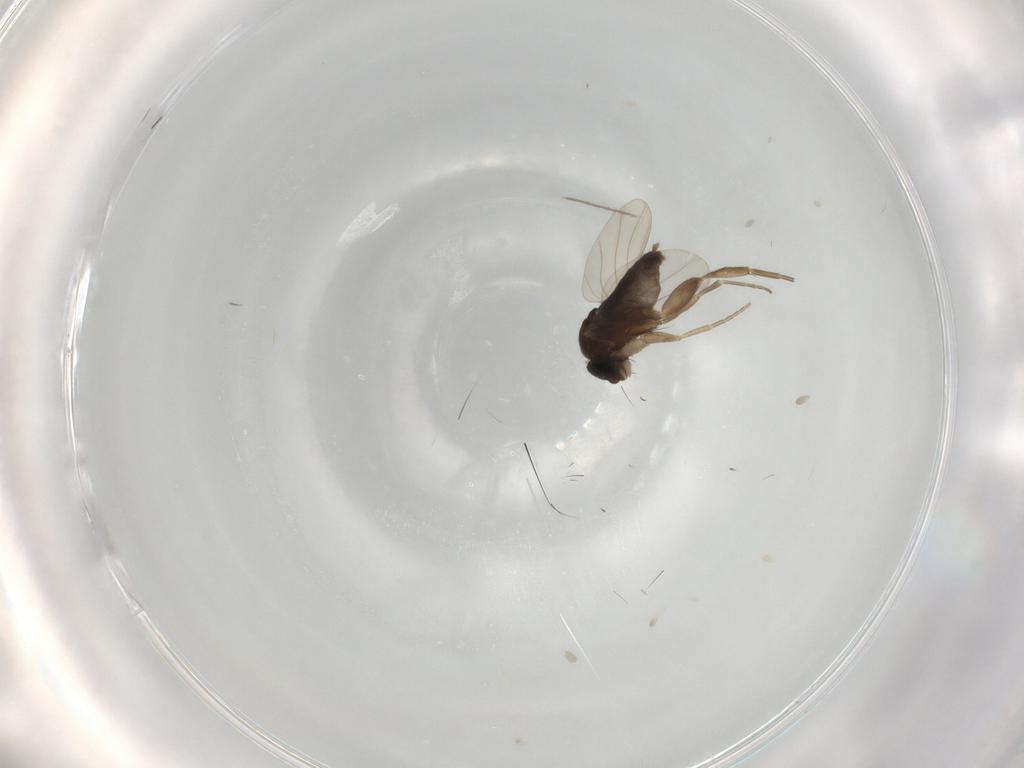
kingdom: Animalia
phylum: Arthropoda
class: Insecta
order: Diptera
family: Phoridae
